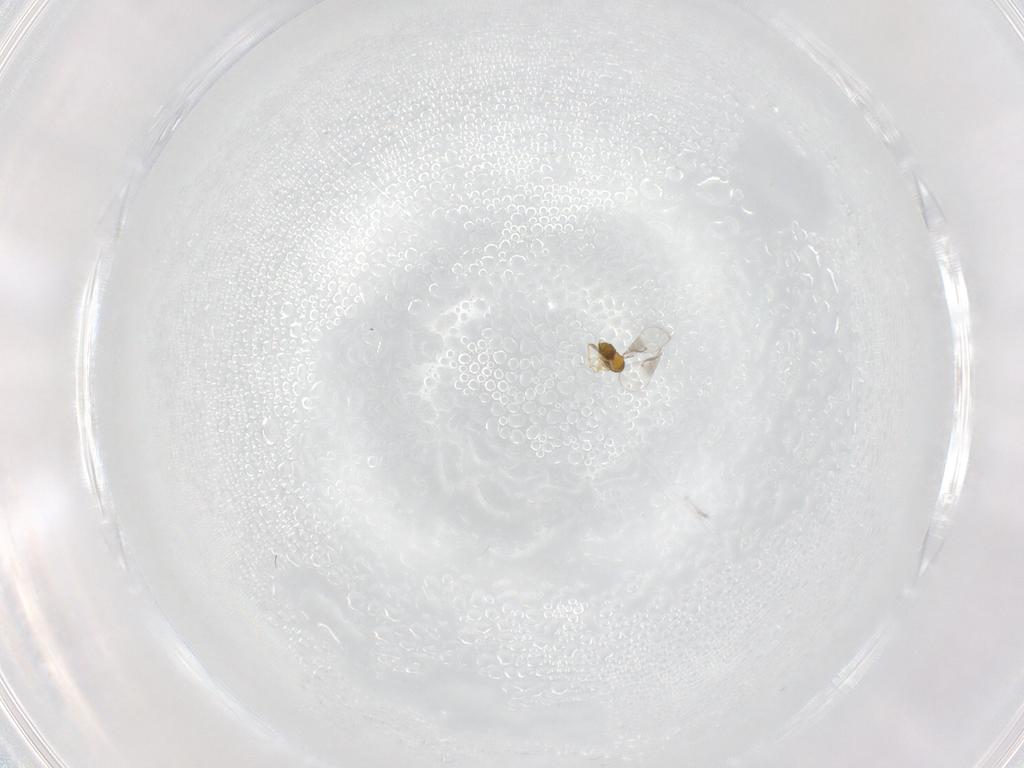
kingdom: Animalia
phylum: Arthropoda
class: Insecta
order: Hymenoptera
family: Trichogrammatidae
